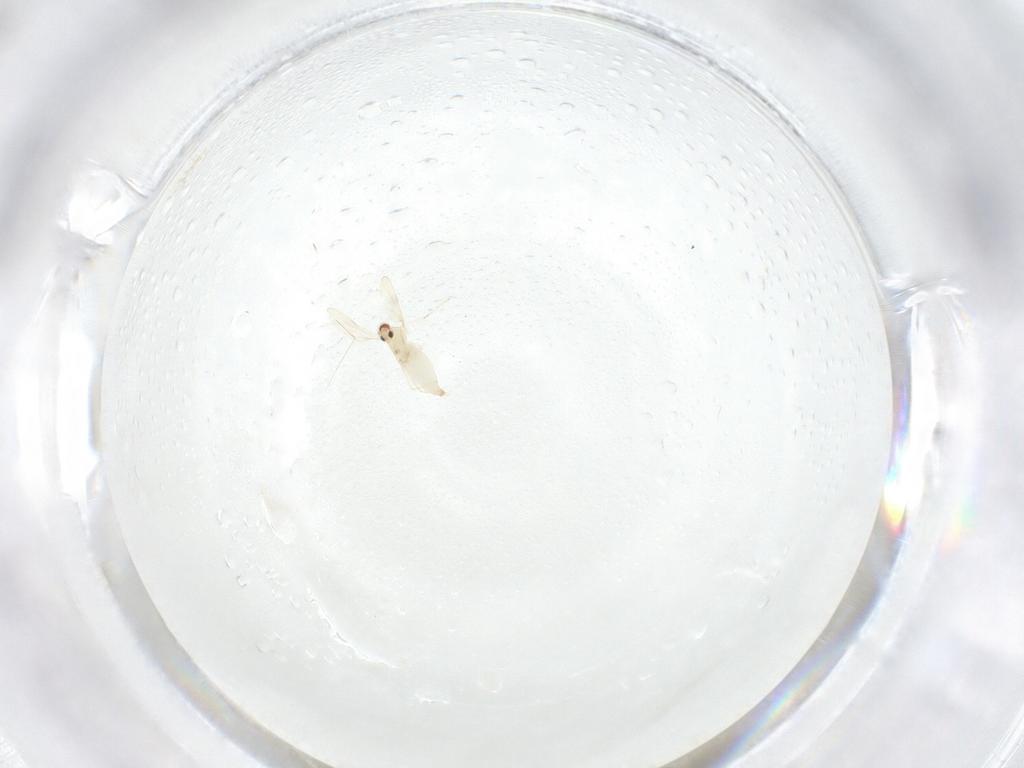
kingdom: Animalia
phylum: Arthropoda
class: Insecta
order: Diptera
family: Cecidomyiidae
